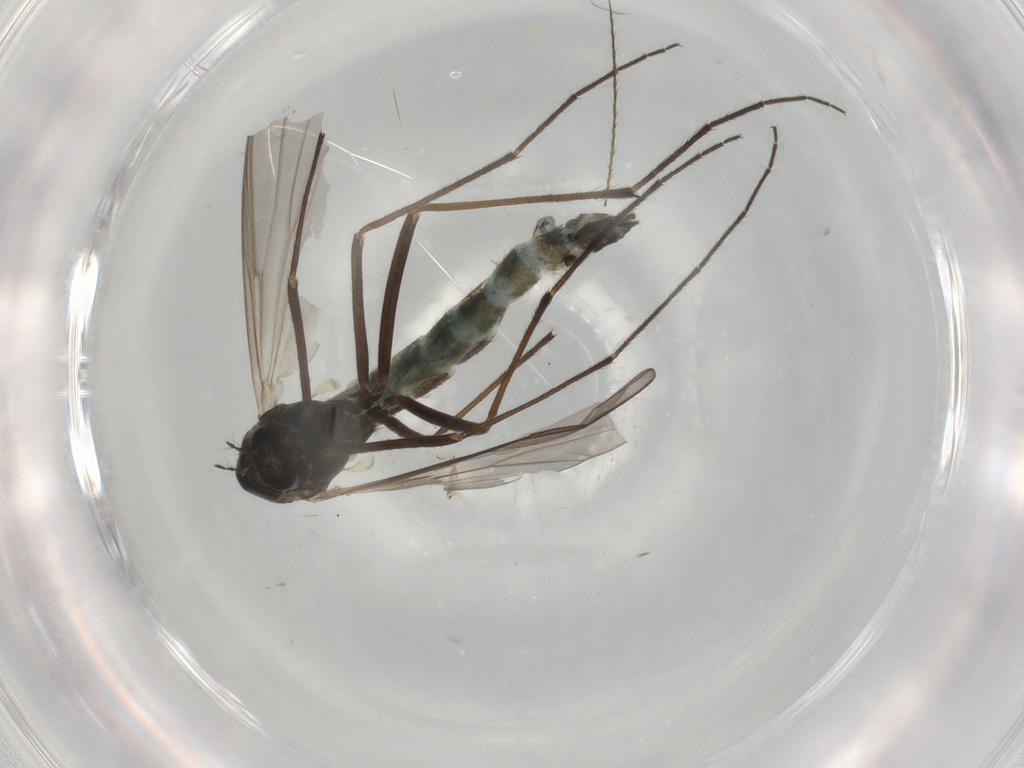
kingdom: Animalia
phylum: Arthropoda
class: Insecta
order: Diptera
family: Chironomidae
